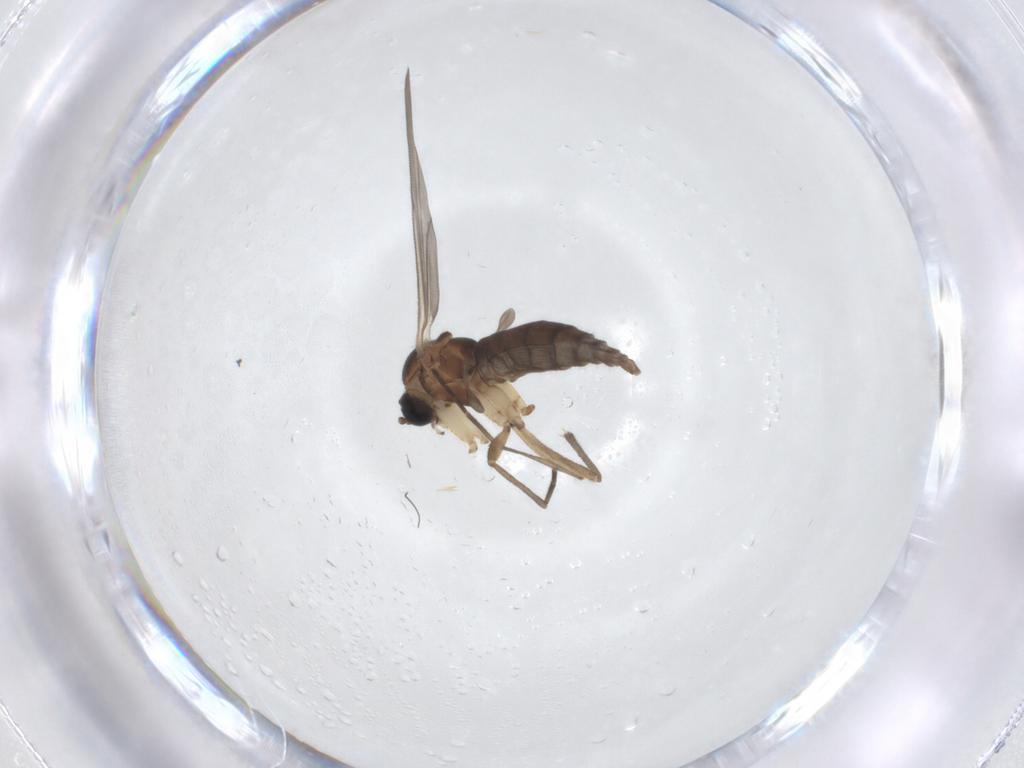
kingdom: Animalia
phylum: Arthropoda
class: Insecta
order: Diptera
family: Sciaridae
